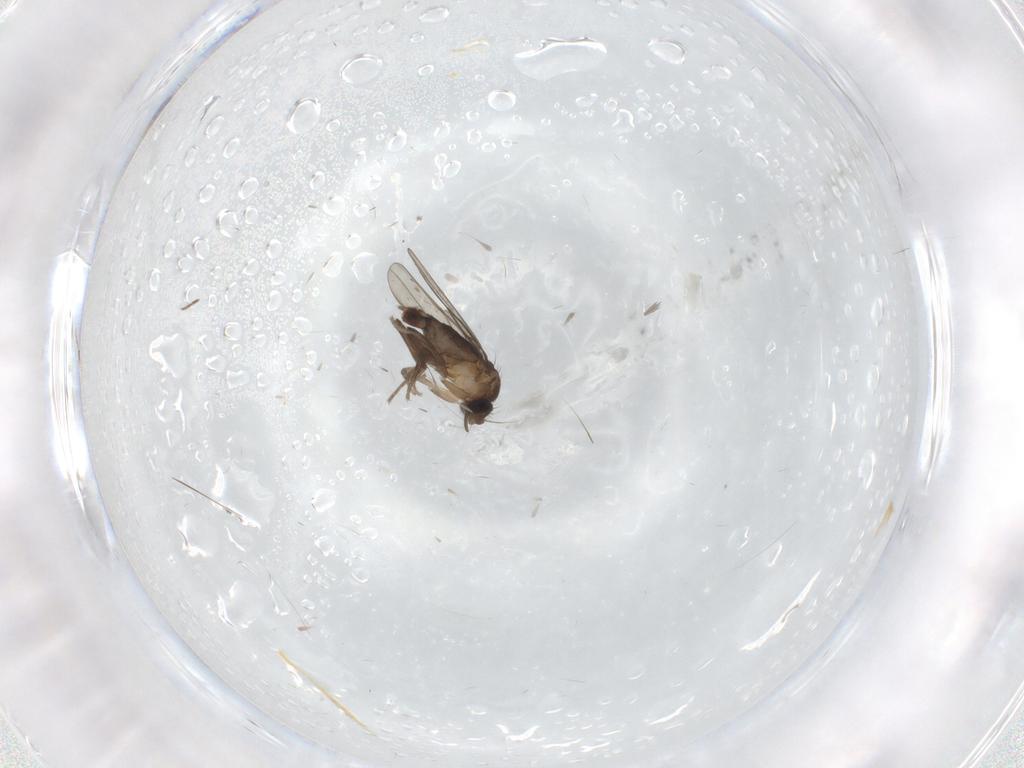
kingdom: Animalia
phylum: Arthropoda
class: Insecta
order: Diptera
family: Cecidomyiidae
